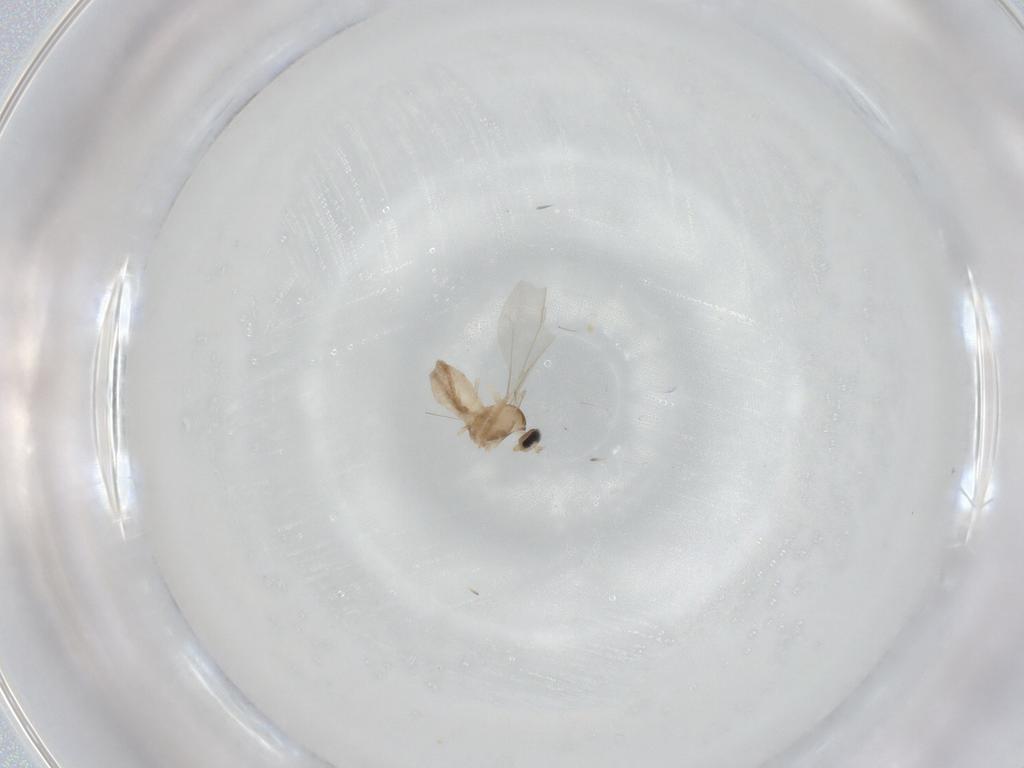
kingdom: Animalia
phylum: Arthropoda
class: Insecta
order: Diptera
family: Cecidomyiidae
